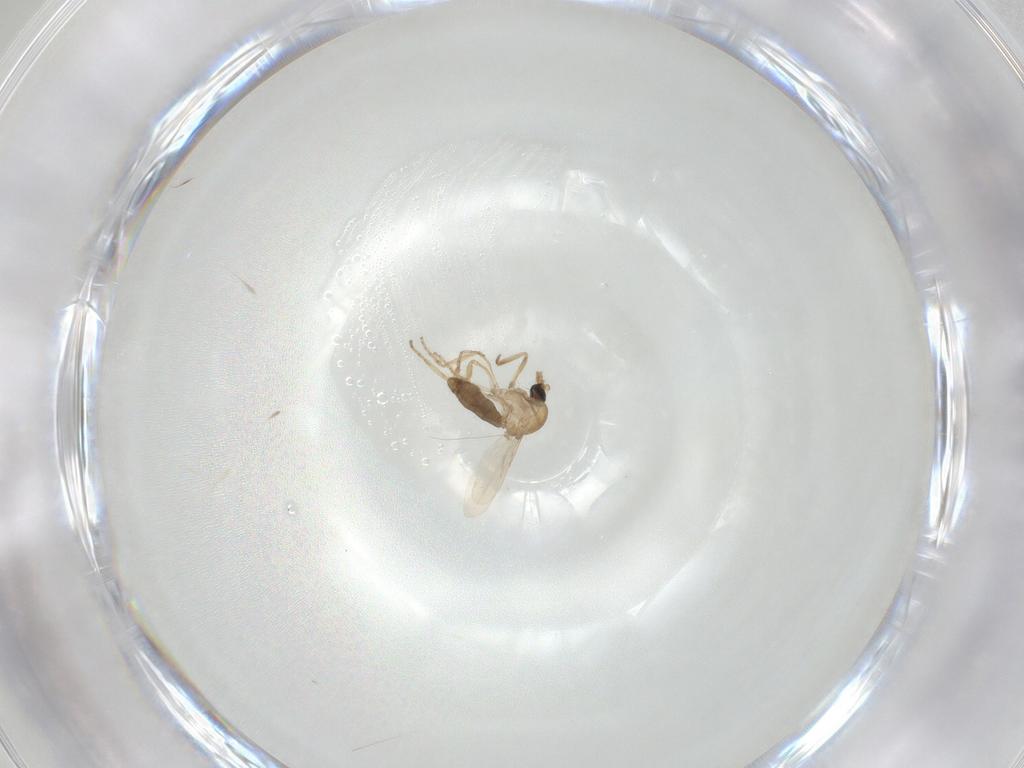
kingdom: Animalia
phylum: Arthropoda
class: Insecta
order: Diptera
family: Ceratopogonidae
